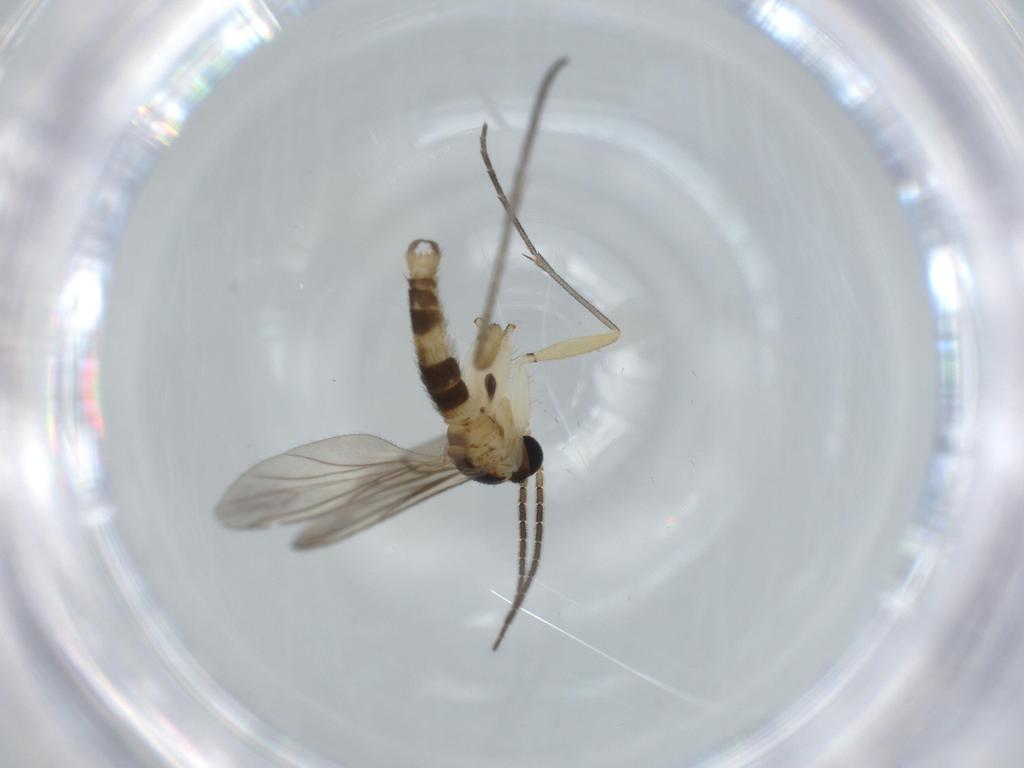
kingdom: Animalia
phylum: Arthropoda
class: Insecta
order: Diptera
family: Sciaridae
